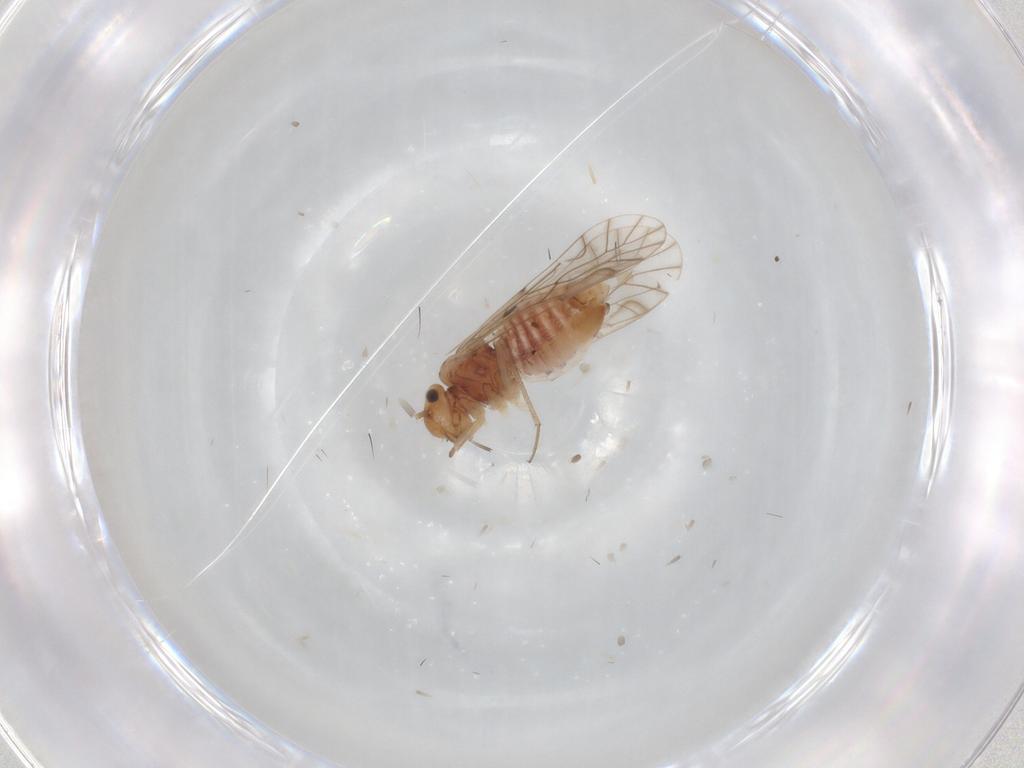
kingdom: Animalia
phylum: Arthropoda
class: Insecta
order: Psocodea
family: Lachesillidae
